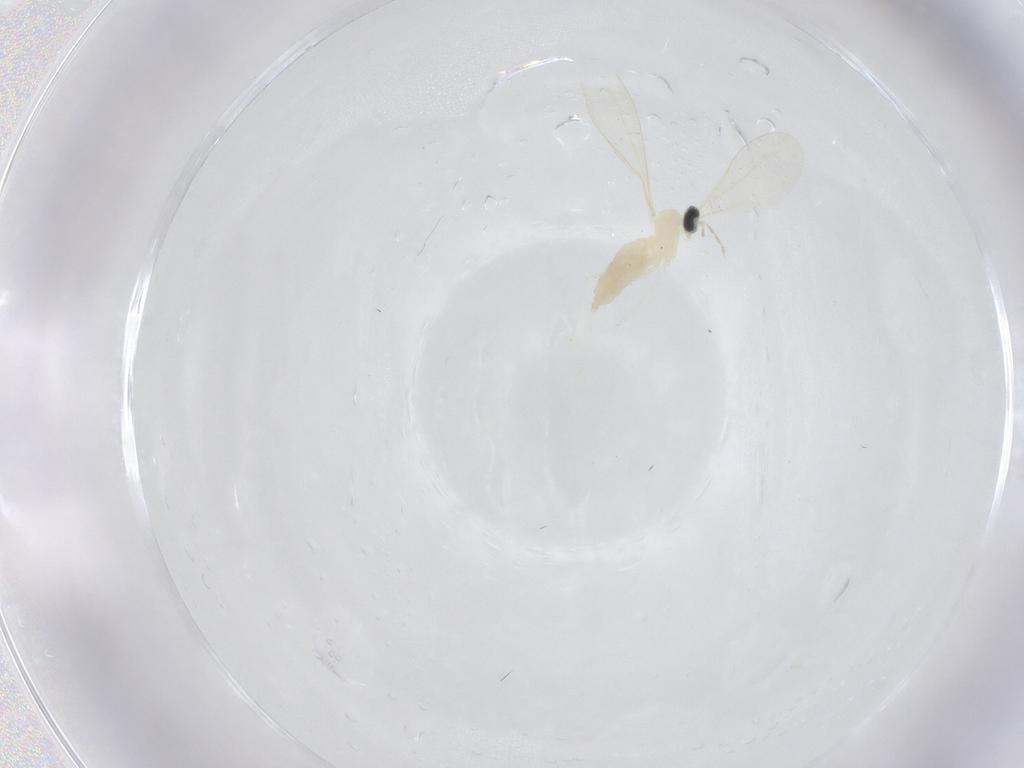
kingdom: Animalia
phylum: Arthropoda
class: Insecta
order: Diptera
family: Cecidomyiidae
